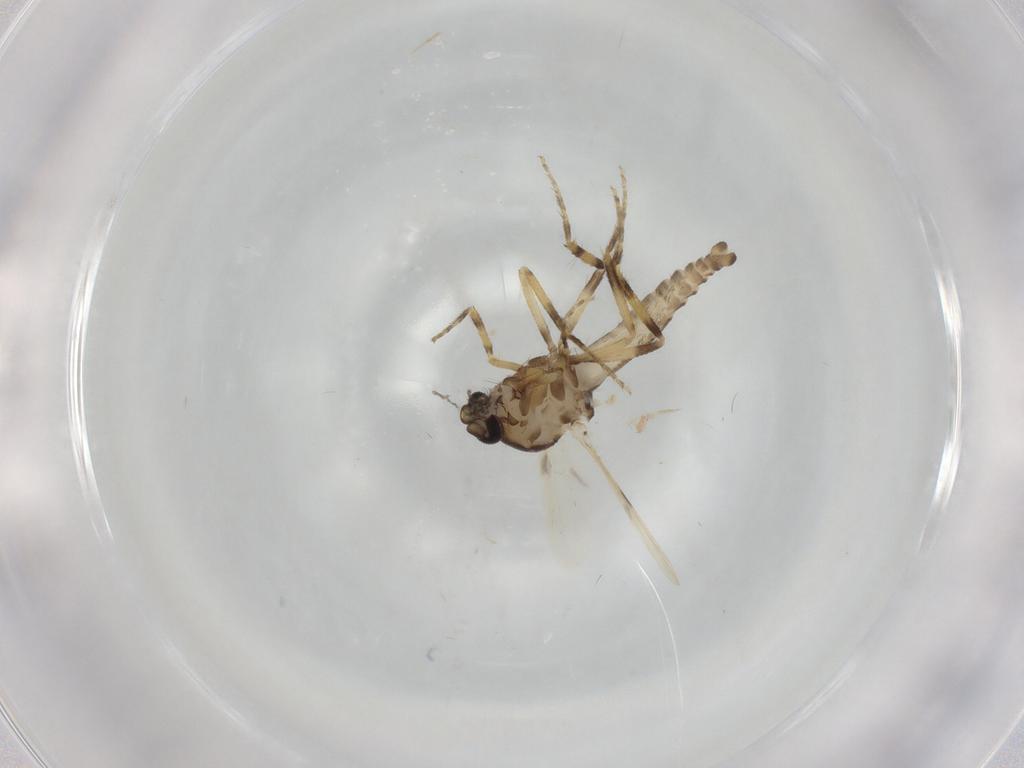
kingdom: Animalia
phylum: Arthropoda
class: Insecta
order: Diptera
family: Ceratopogonidae
